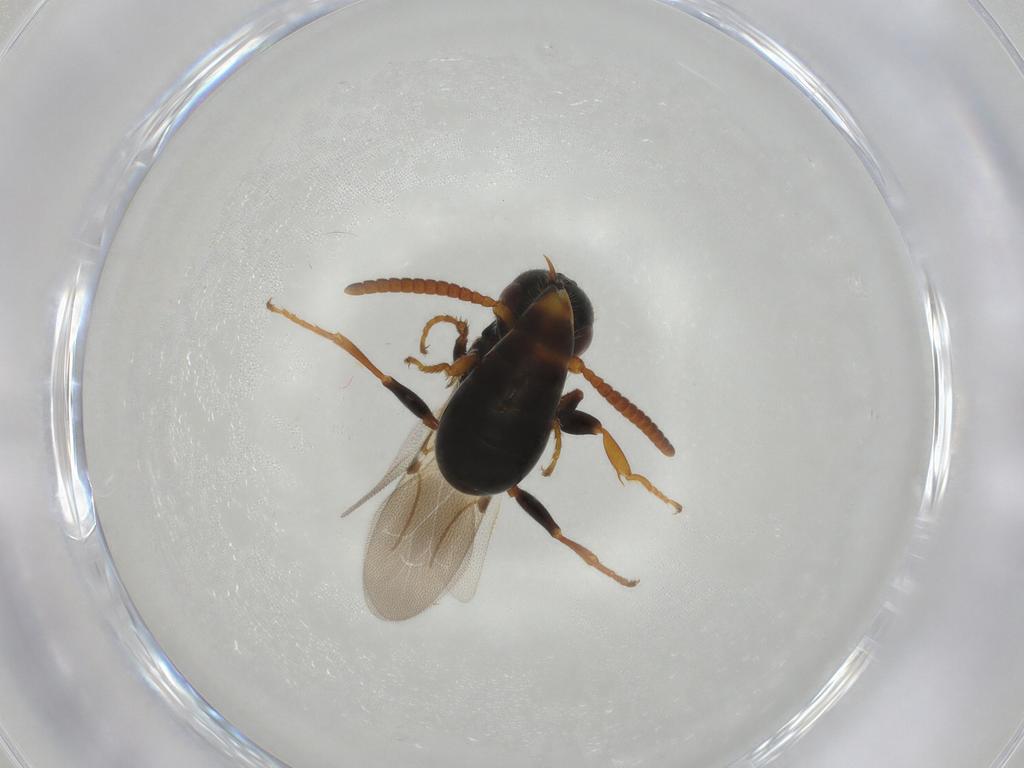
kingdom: Animalia
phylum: Arthropoda
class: Insecta
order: Hymenoptera
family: Bethylidae
